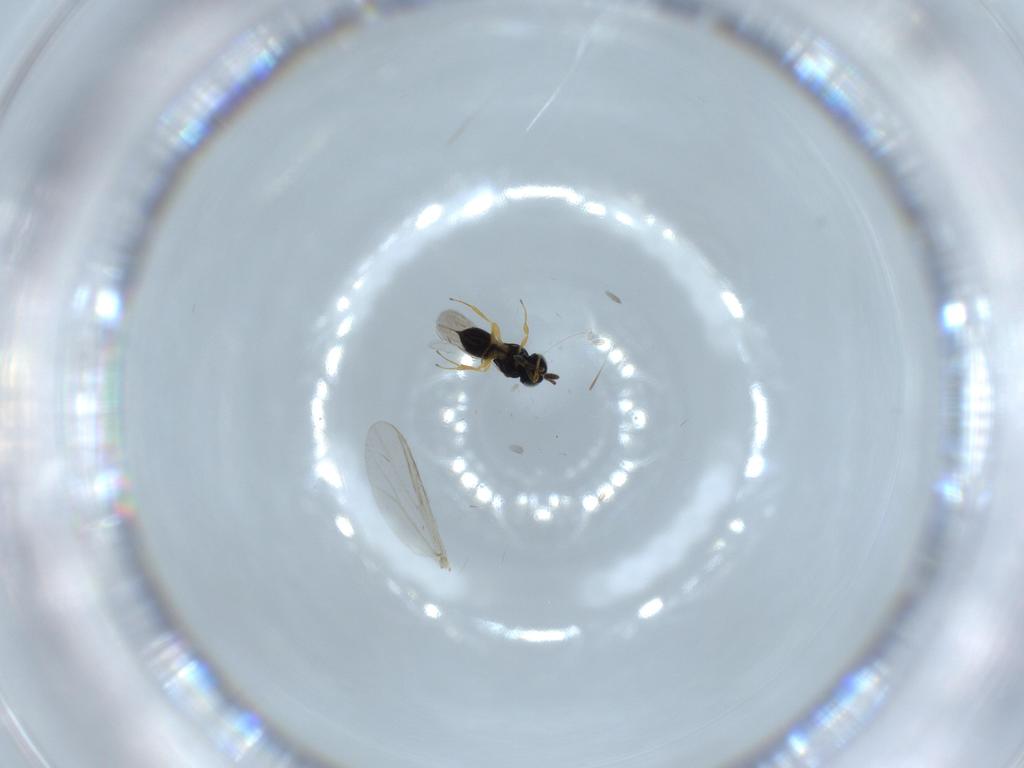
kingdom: Animalia
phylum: Arthropoda
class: Insecta
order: Hymenoptera
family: Scelionidae
